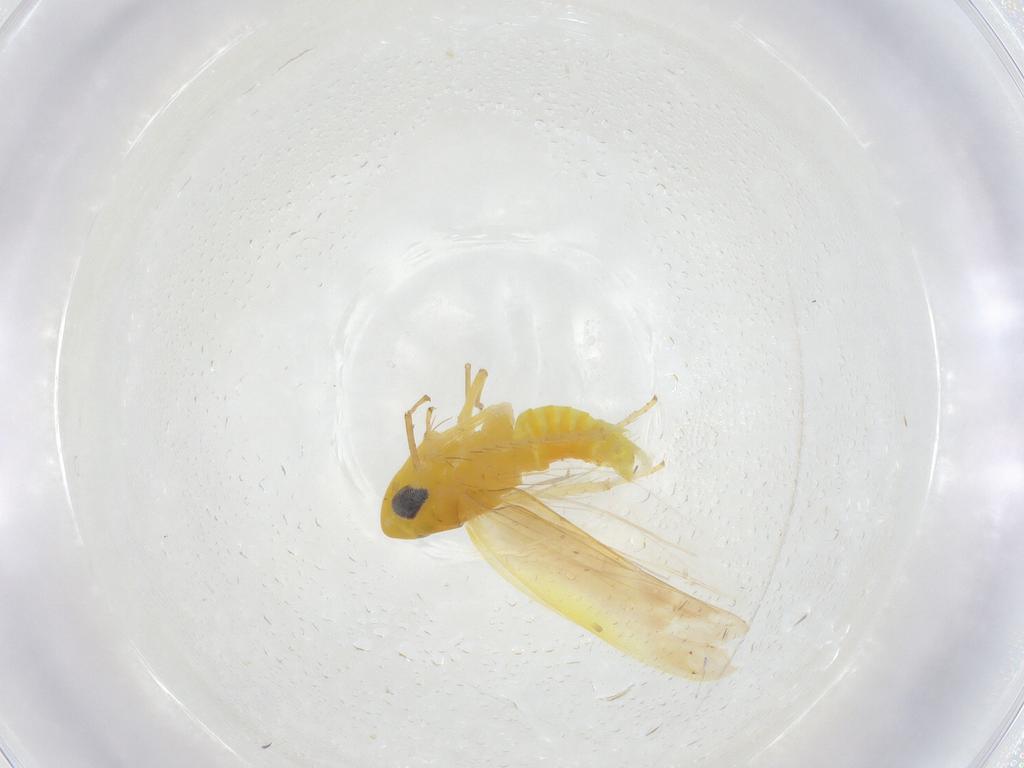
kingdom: Animalia
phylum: Arthropoda
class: Insecta
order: Hemiptera
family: Cicadellidae
